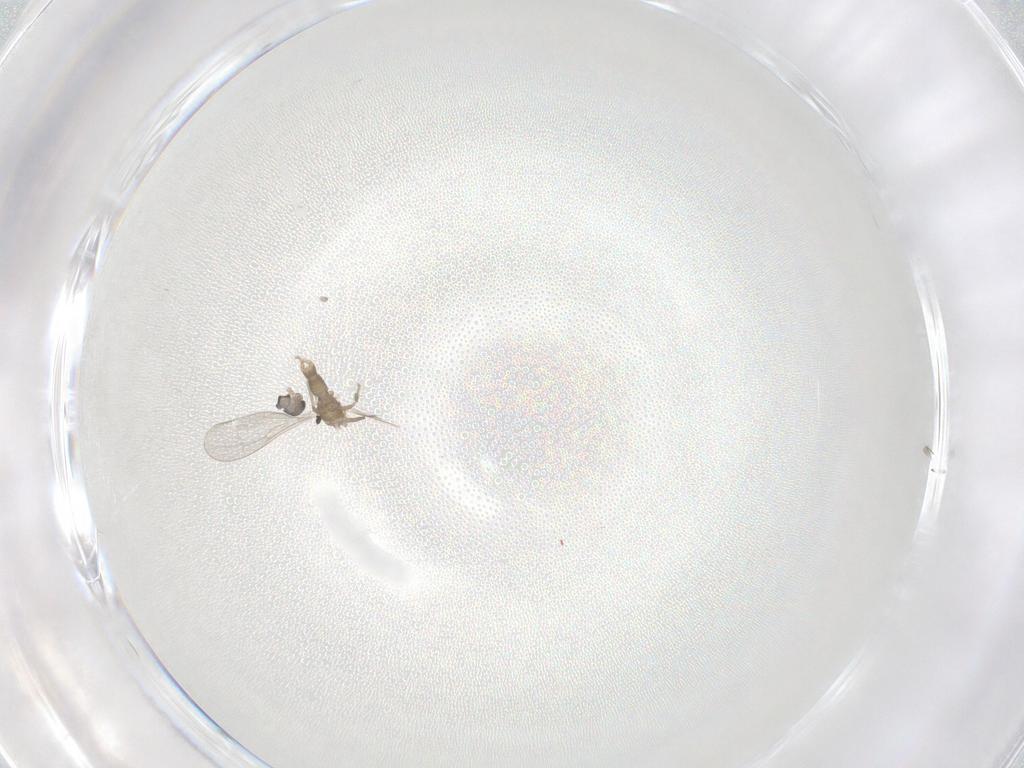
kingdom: Animalia
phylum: Arthropoda
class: Insecta
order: Diptera
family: Cecidomyiidae
